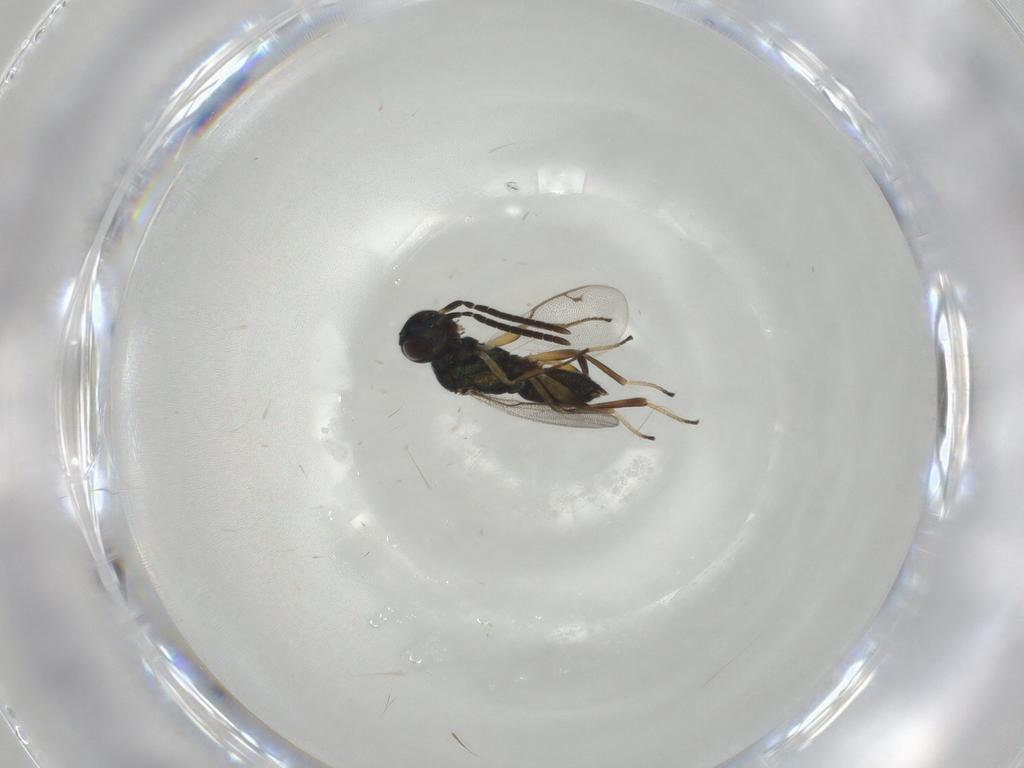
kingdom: Animalia
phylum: Arthropoda
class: Insecta
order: Hymenoptera
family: Eupelmidae
